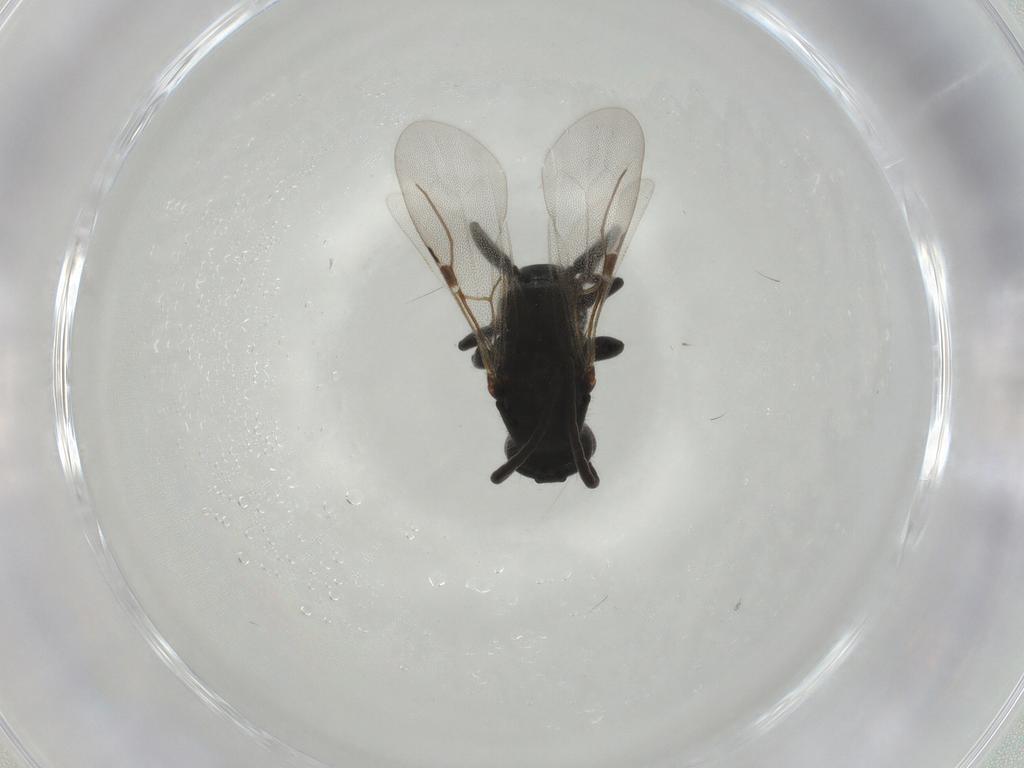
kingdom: Animalia
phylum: Arthropoda
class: Insecta
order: Hymenoptera
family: Bethylidae
